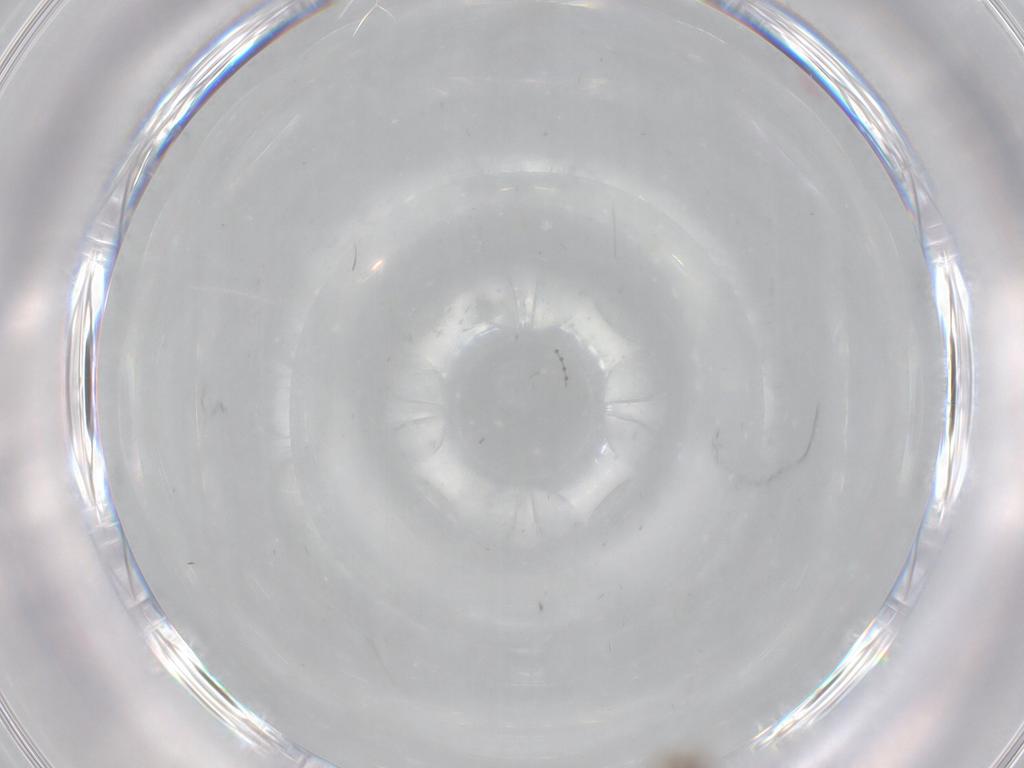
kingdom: Animalia
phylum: Arthropoda
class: Insecta
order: Diptera
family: Cecidomyiidae
